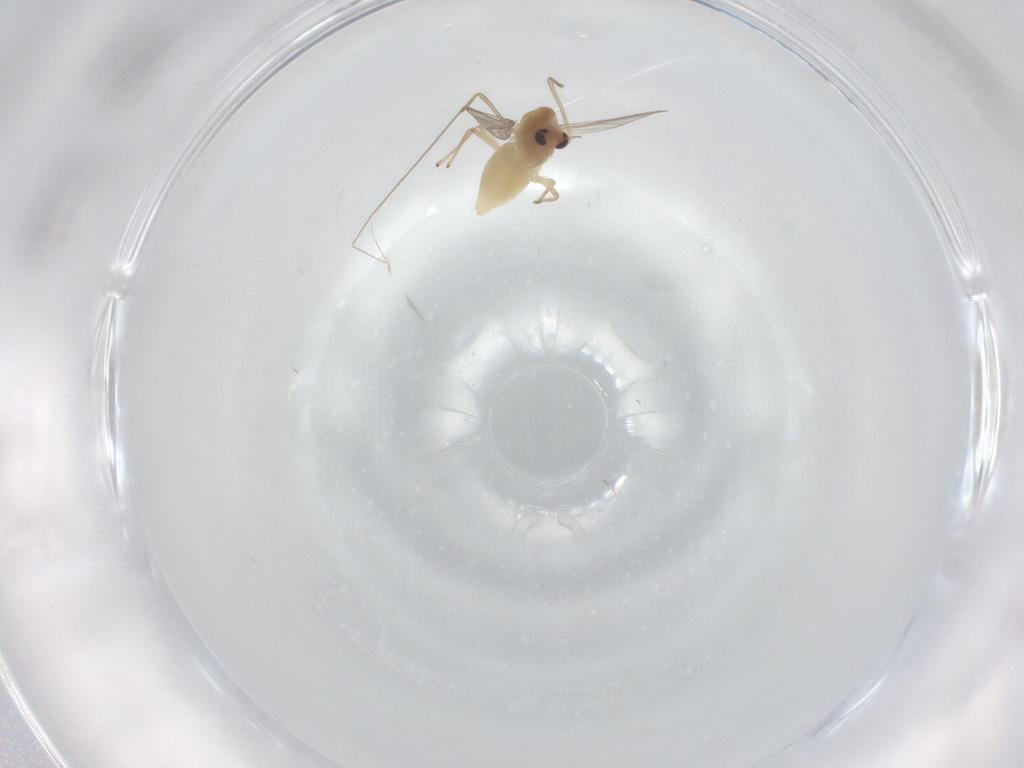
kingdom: Animalia
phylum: Arthropoda
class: Insecta
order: Diptera
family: Chironomidae
